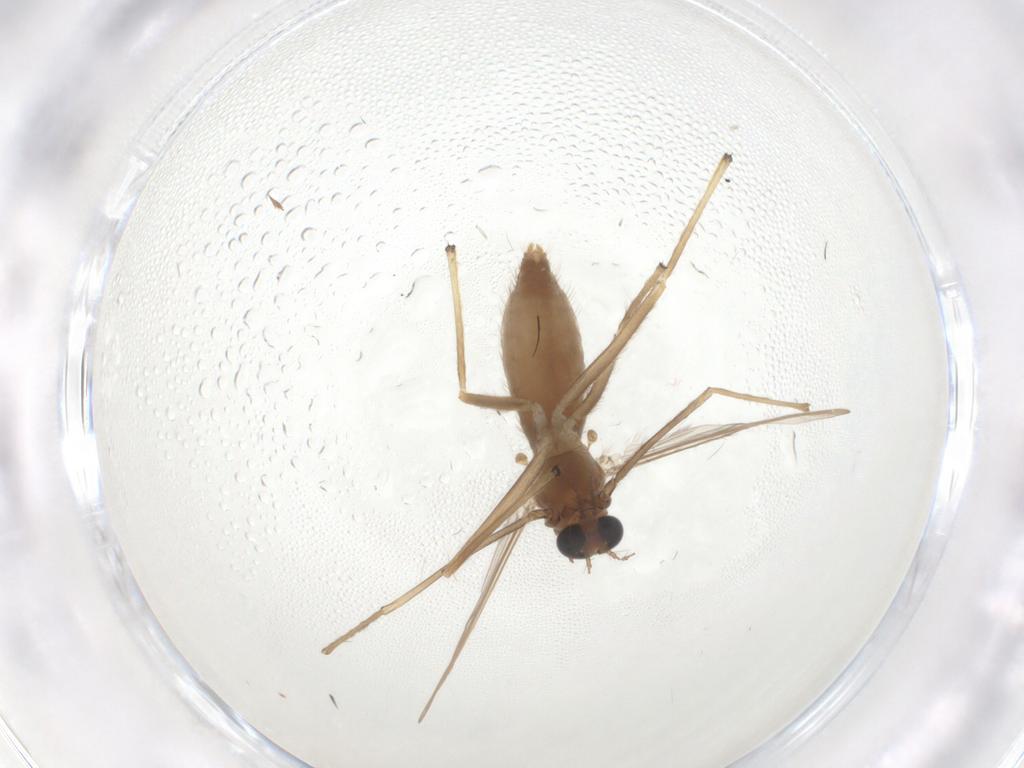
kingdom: Animalia
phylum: Arthropoda
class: Insecta
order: Diptera
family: Chironomidae
